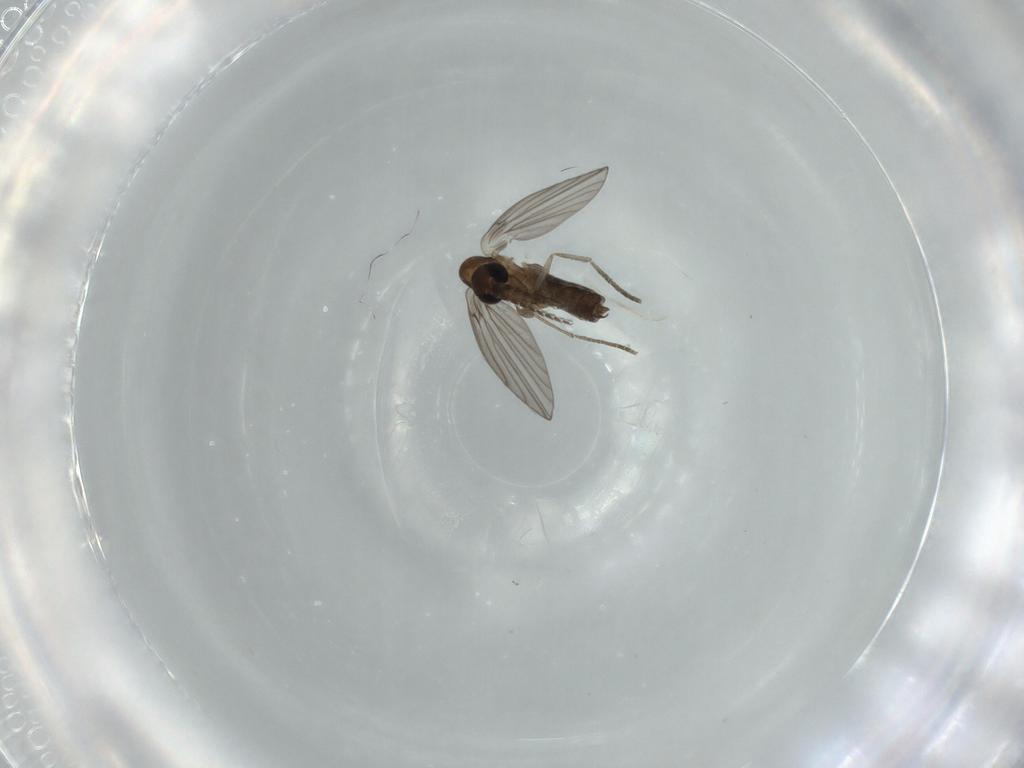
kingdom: Animalia
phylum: Arthropoda
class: Insecta
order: Diptera
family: Psychodidae
